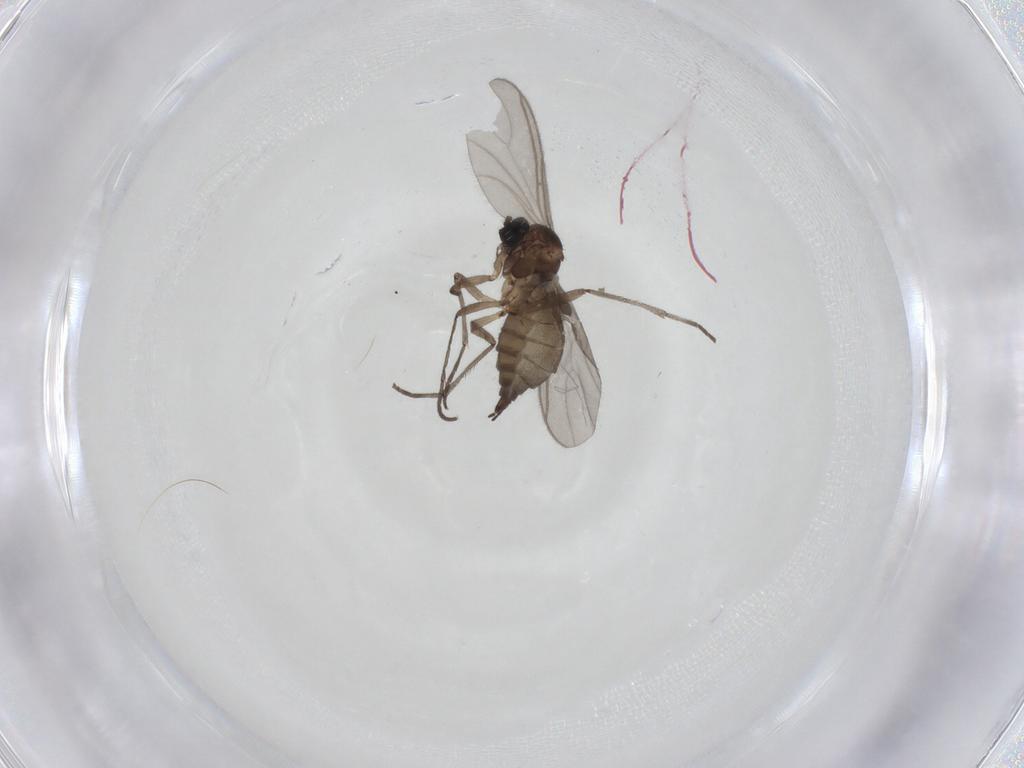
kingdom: Animalia
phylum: Arthropoda
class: Insecta
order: Diptera
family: Sciaridae
